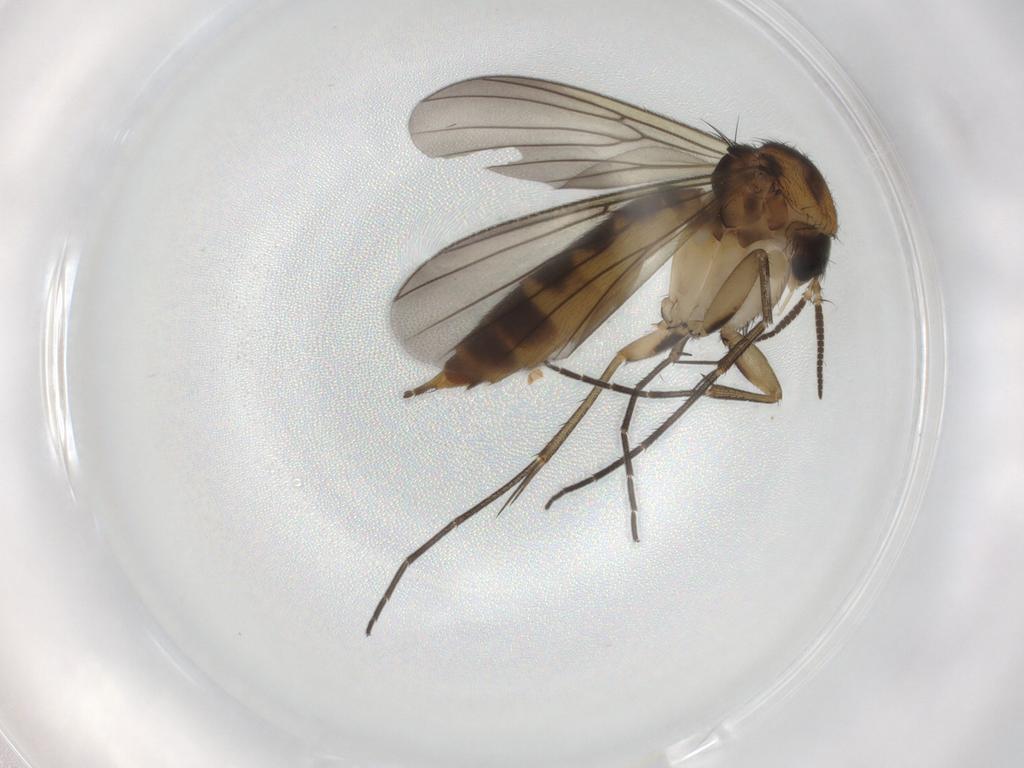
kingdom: Animalia
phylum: Arthropoda
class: Insecta
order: Diptera
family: Mycetophilidae
